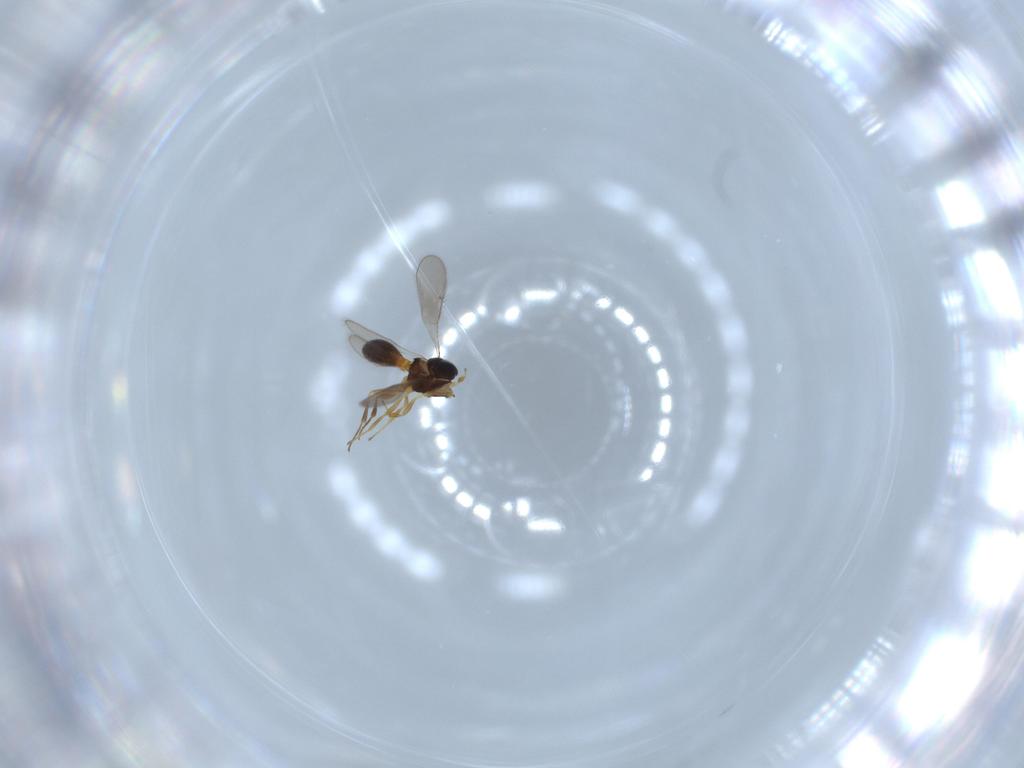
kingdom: Animalia
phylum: Arthropoda
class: Insecta
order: Hymenoptera
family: Scelionidae
